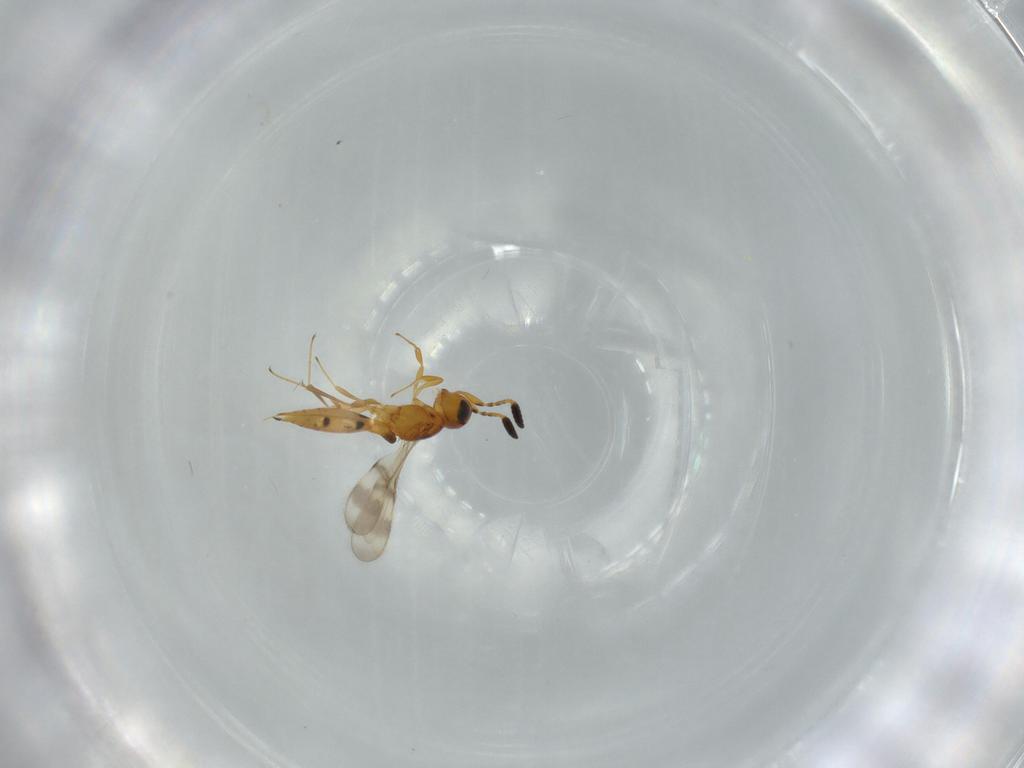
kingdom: Animalia
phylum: Arthropoda
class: Insecta
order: Hymenoptera
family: Scelionidae
